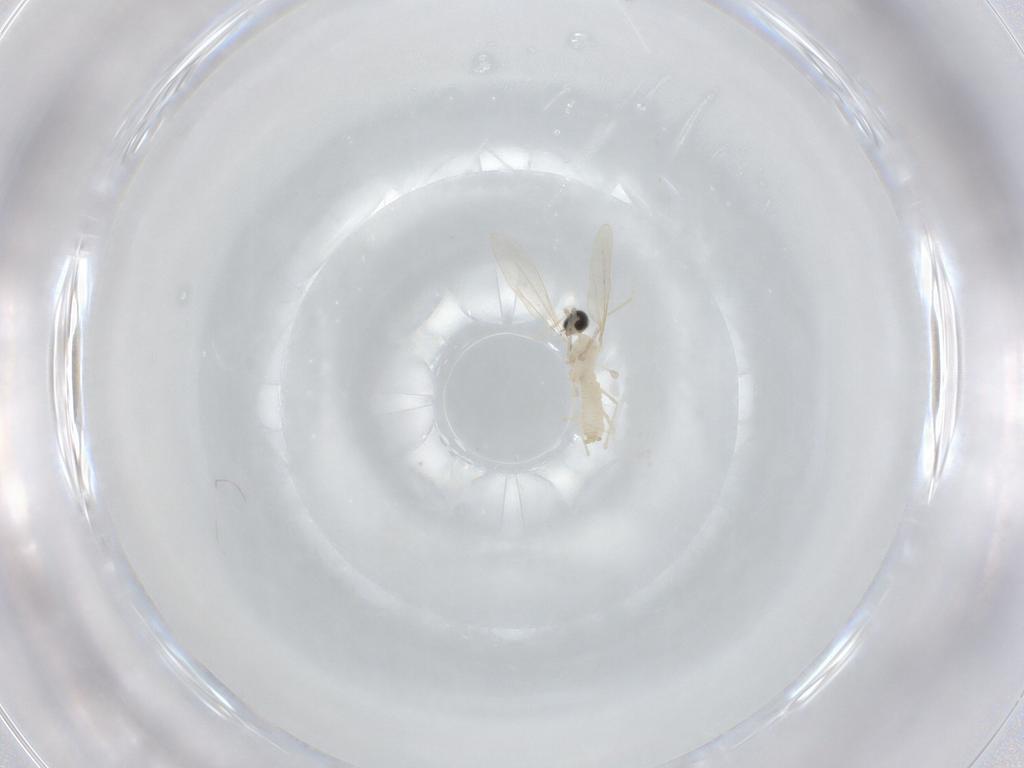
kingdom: Animalia
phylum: Arthropoda
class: Insecta
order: Diptera
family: Cecidomyiidae
